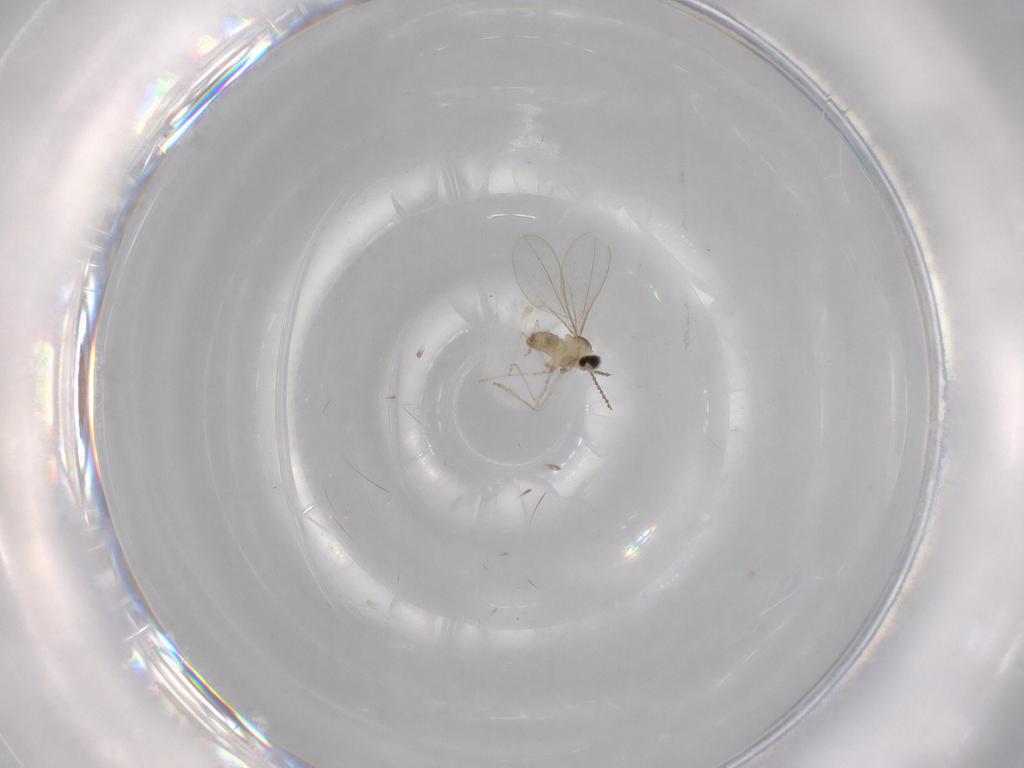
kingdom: Animalia
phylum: Arthropoda
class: Insecta
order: Diptera
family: Cecidomyiidae
